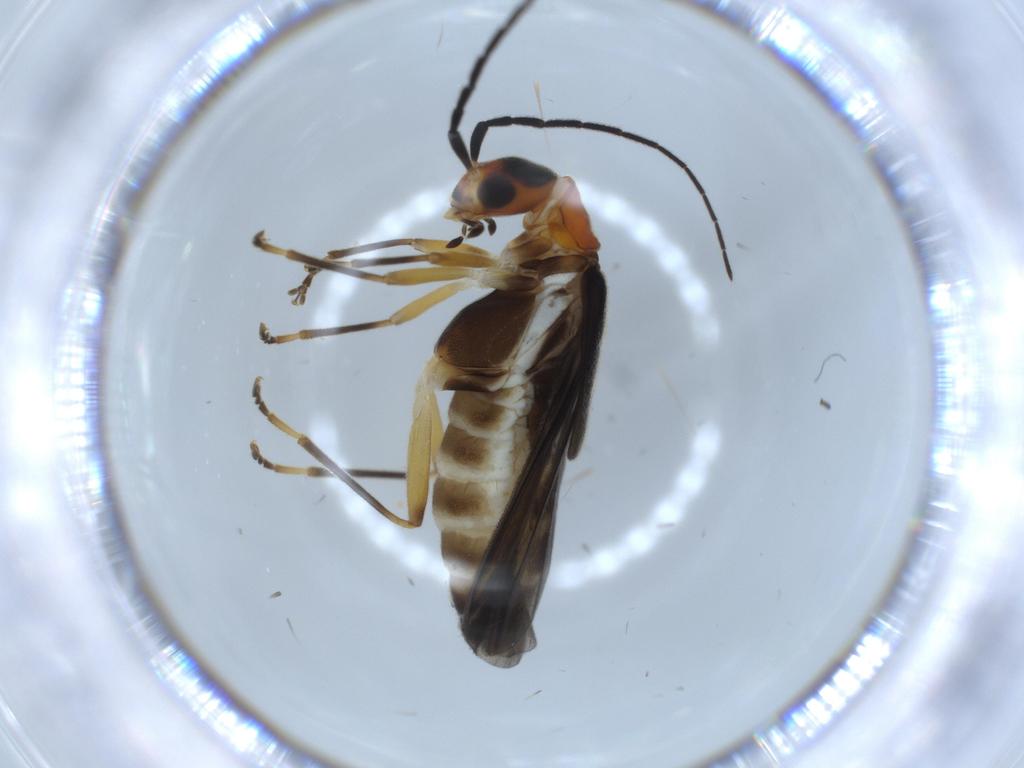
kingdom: Animalia
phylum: Arthropoda
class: Insecta
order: Coleoptera
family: Cantharidae
